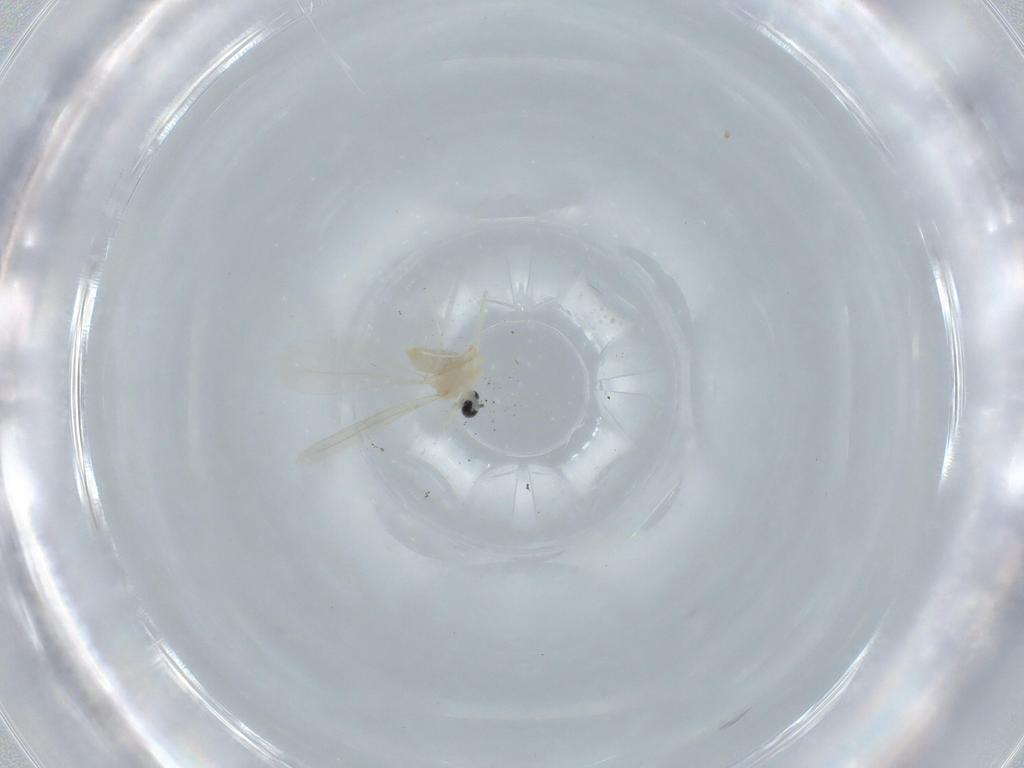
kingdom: Animalia
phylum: Arthropoda
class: Insecta
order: Diptera
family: Cecidomyiidae
